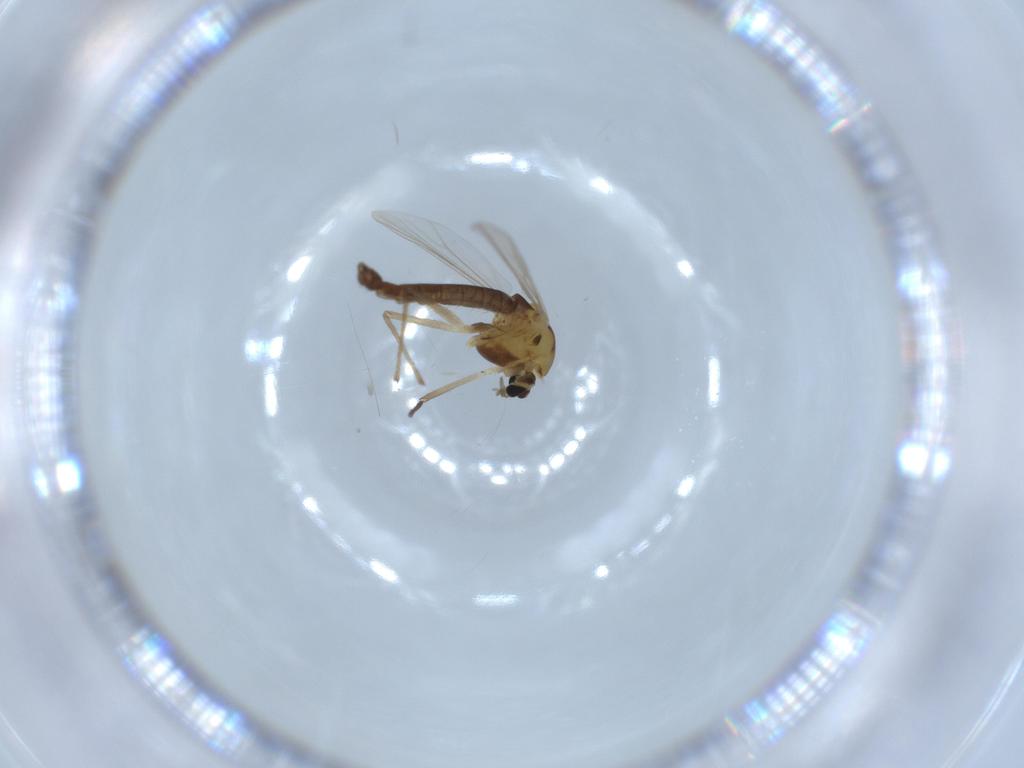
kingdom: Animalia
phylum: Arthropoda
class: Insecta
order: Diptera
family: Chironomidae
